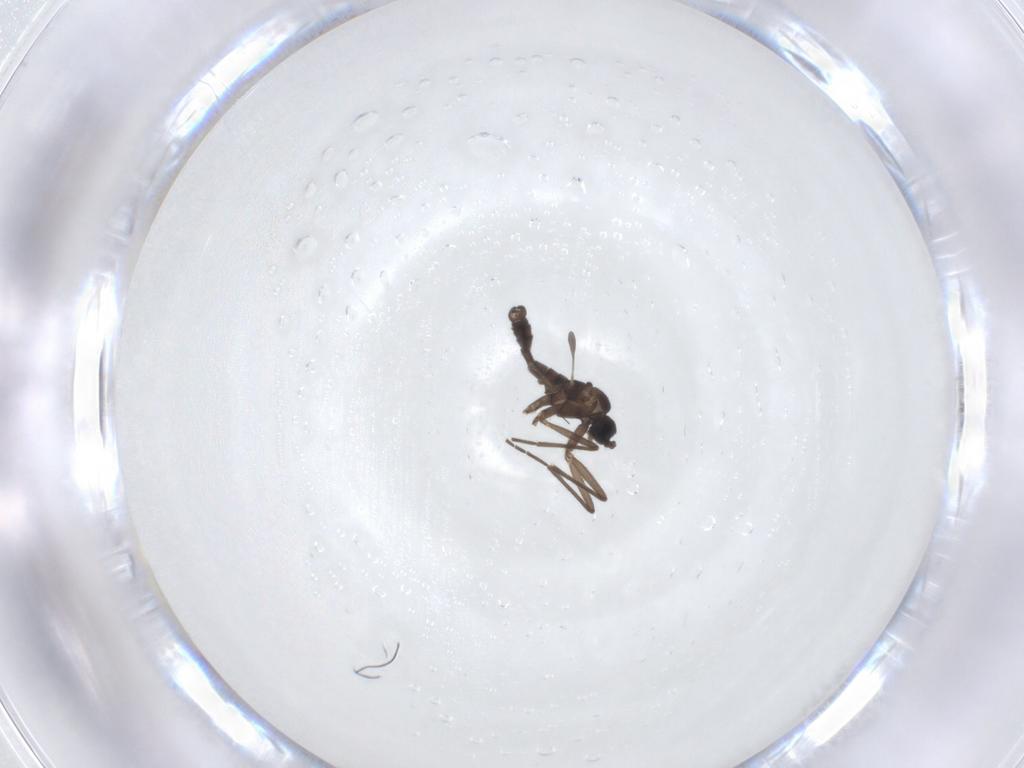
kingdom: Animalia
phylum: Arthropoda
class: Insecta
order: Diptera
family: Sciaridae
